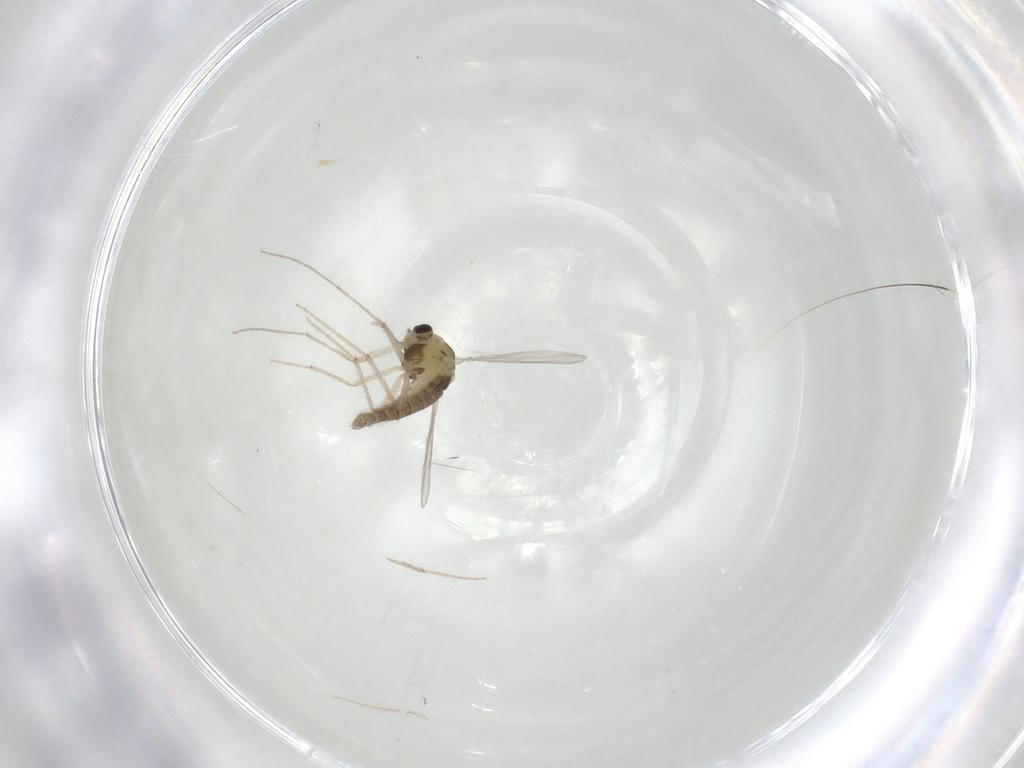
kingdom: Animalia
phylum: Arthropoda
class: Insecta
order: Diptera
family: Chironomidae
